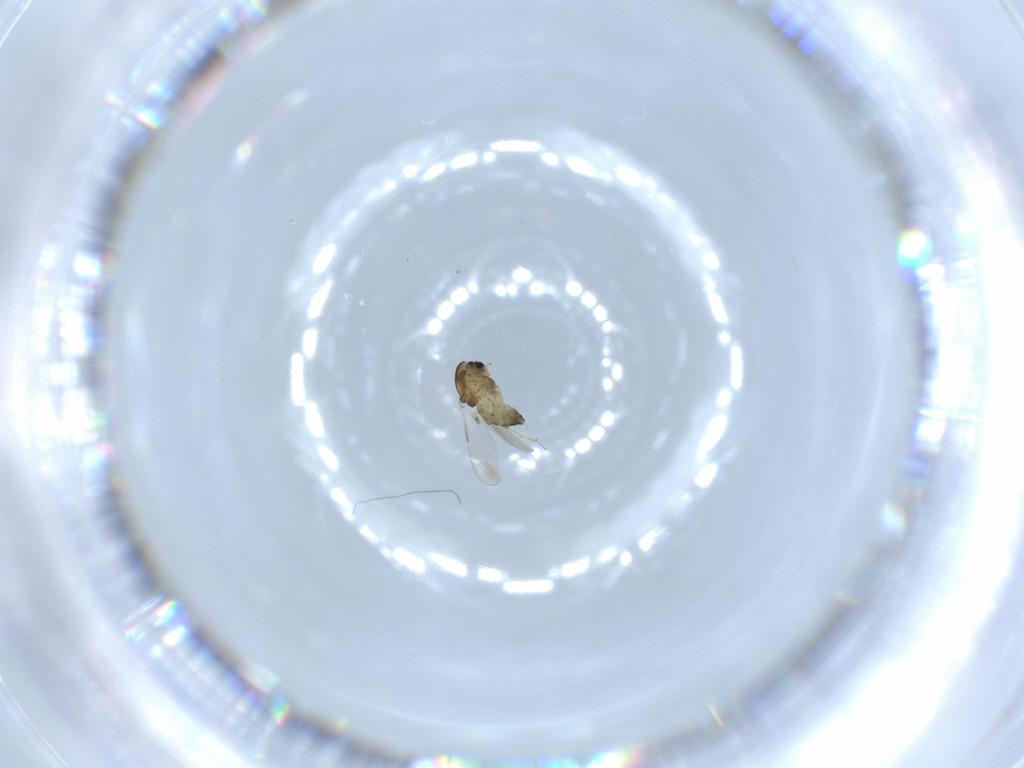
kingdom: Animalia
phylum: Arthropoda
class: Insecta
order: Diptera
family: Chironomidae
